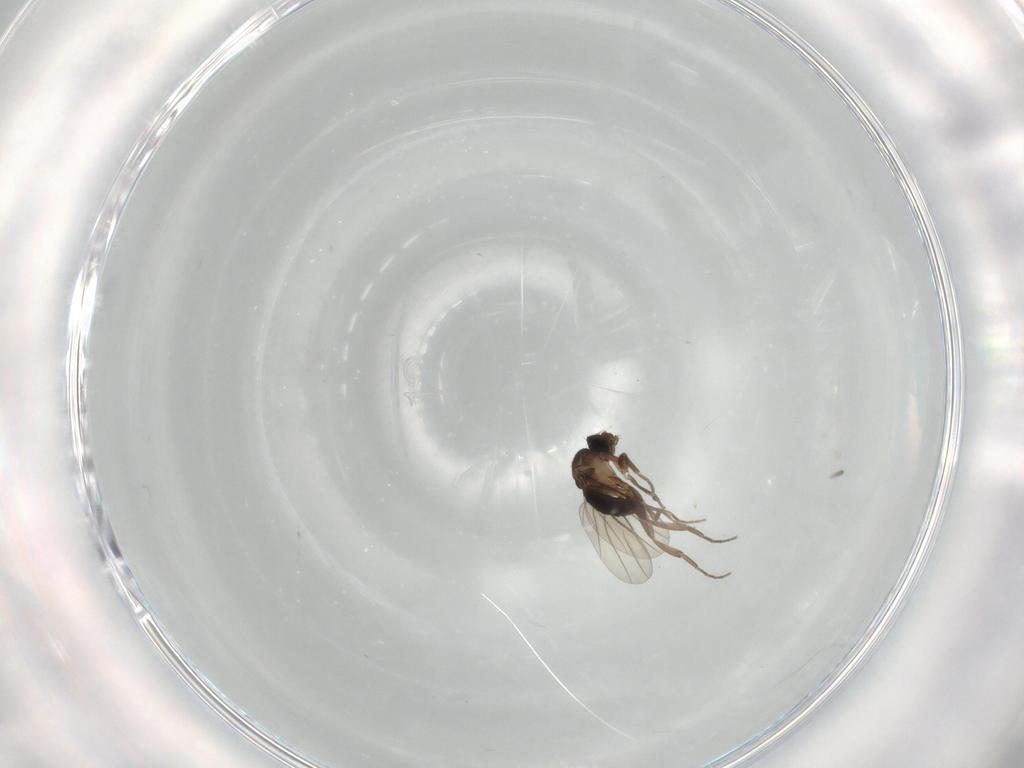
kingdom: Animalia
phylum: Arthropoda
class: Insecta
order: Diptera
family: Phoridae
